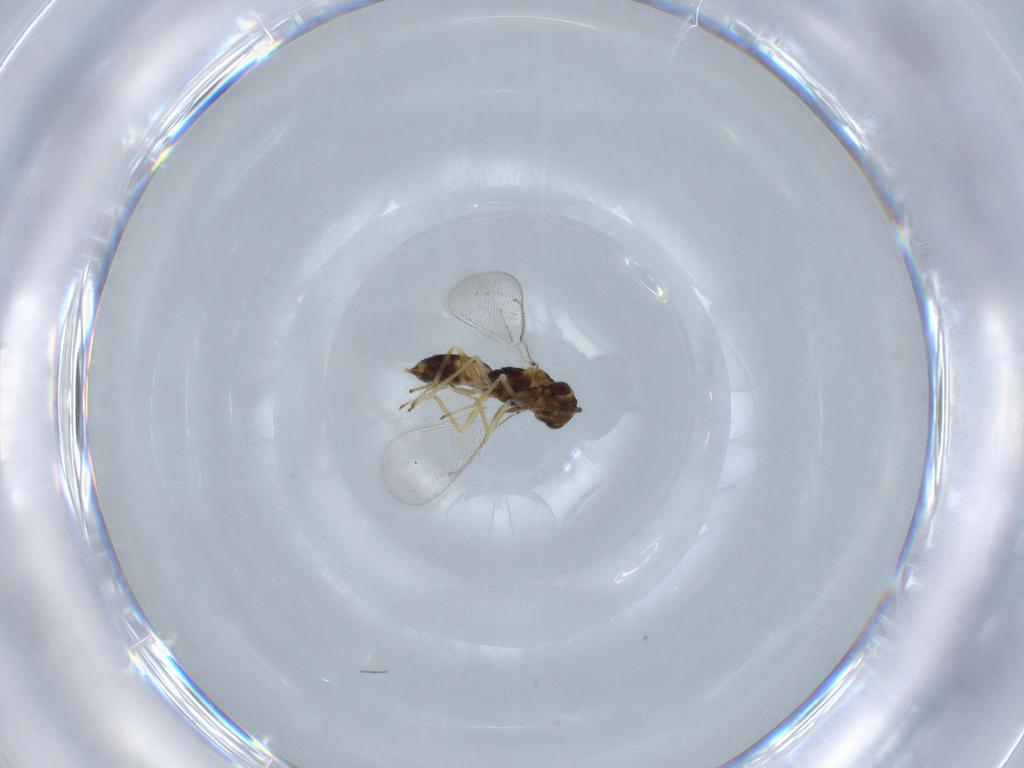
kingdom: Animalia
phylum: Arthropoda
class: Insecta
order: Hymenoptera
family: Eulophidae
